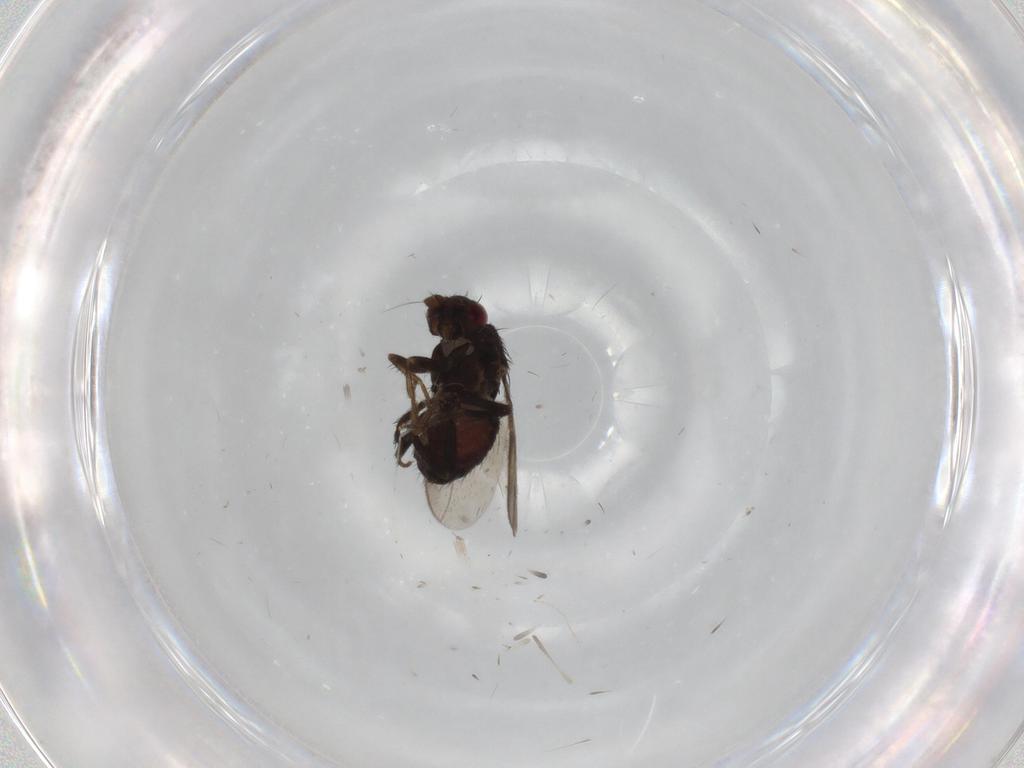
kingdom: Animalia
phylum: Arthropoda
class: Insecta
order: Diptera
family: Sphaeroceridae
